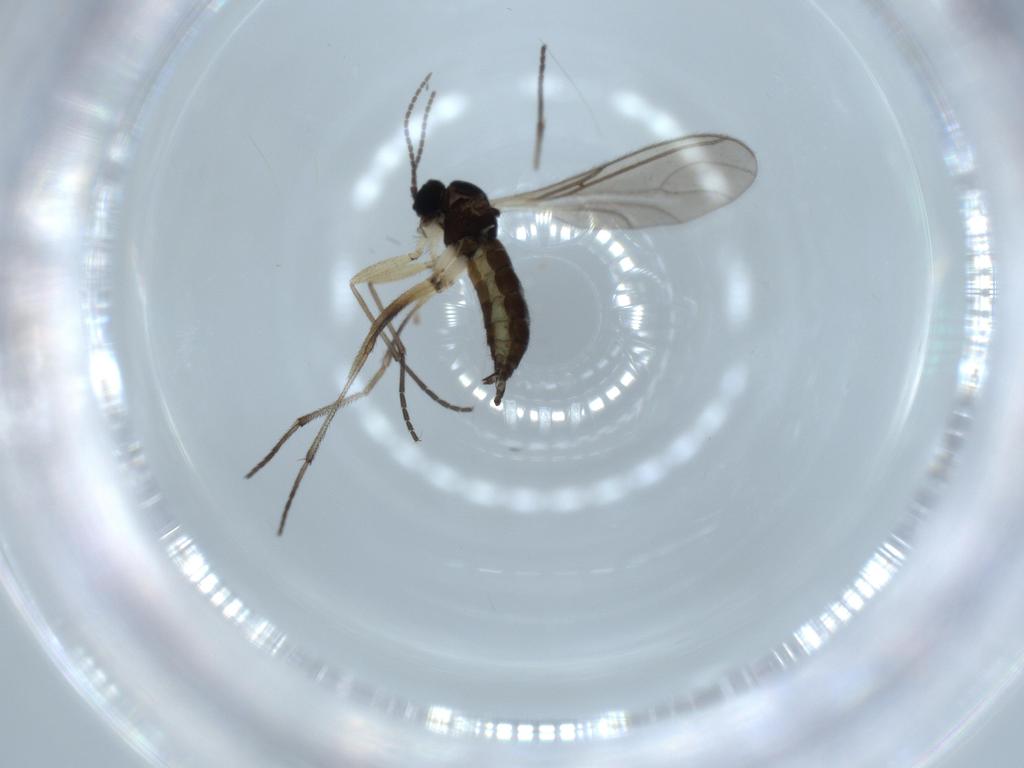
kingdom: Animalia
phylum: Arthropoda
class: Insecta
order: Diptera
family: Sciaridae
